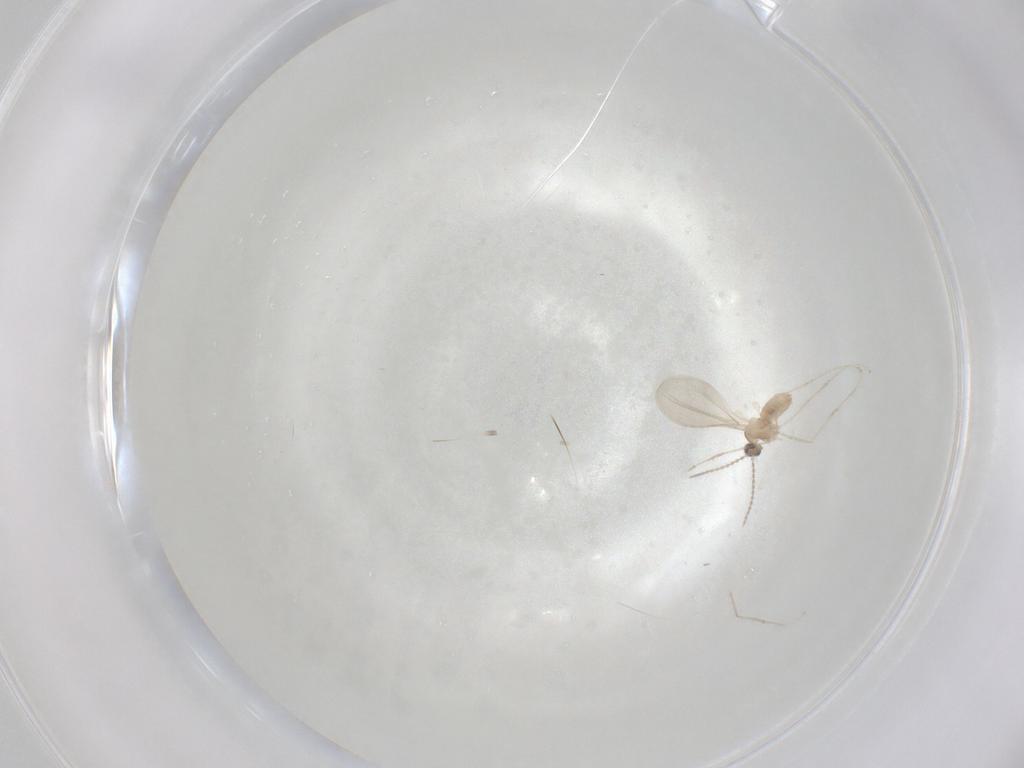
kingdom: Animalia
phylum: Arthropoda
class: Insecta
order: Diptera
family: Cecidomyiidae
